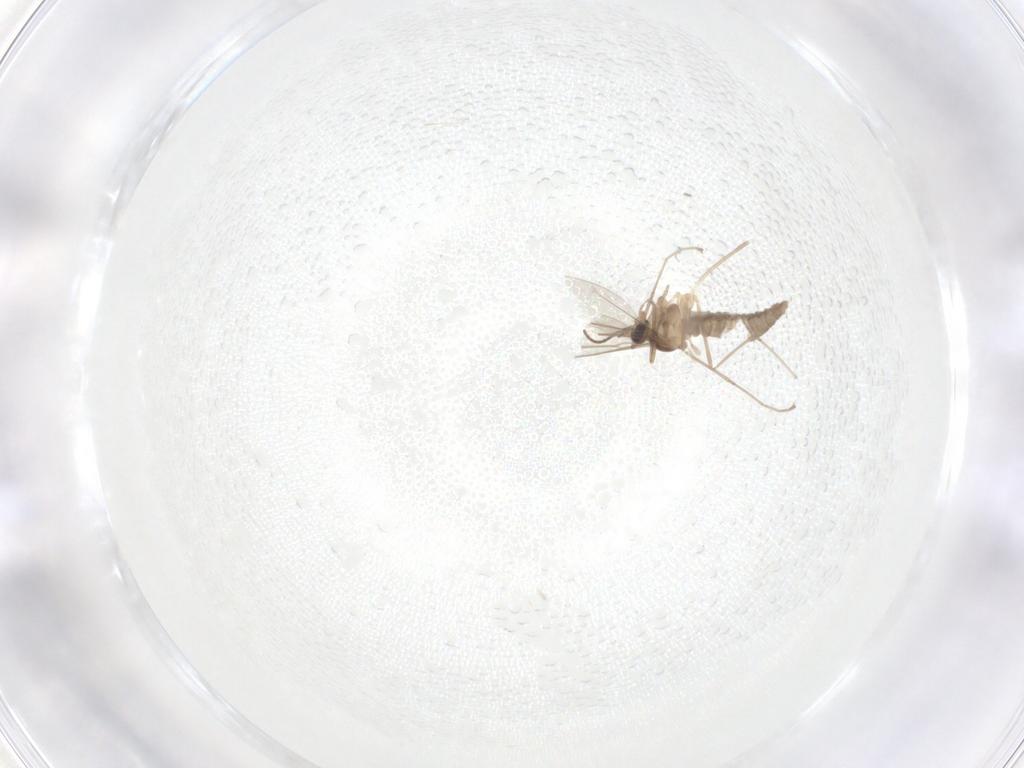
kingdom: Animalia
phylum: Arthropoda
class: Insecta
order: Diptera
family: Cecidomyiidae
